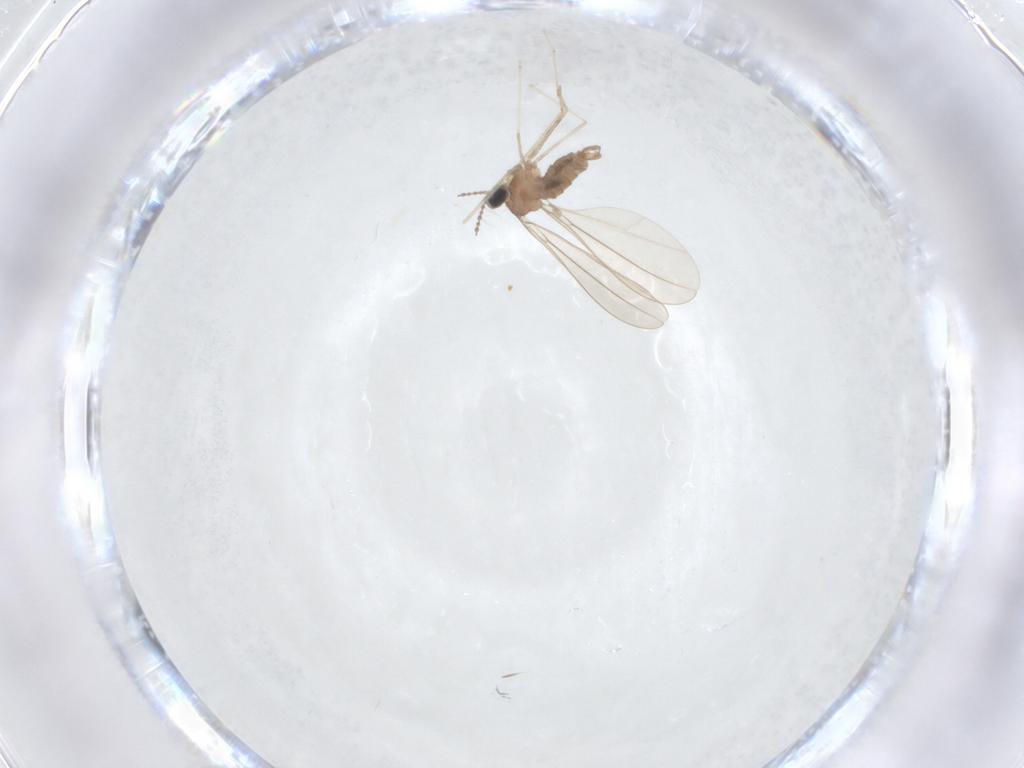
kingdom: Animalia
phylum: Arthropoda
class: Insecta
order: Diptera
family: Cecidomyiidae
